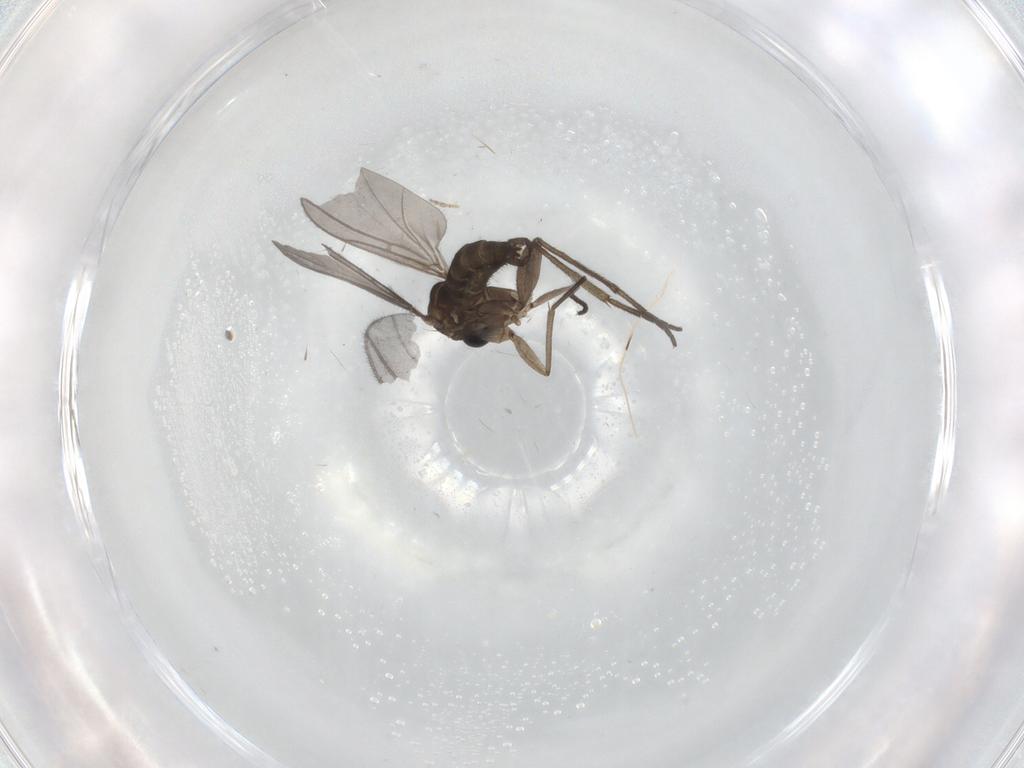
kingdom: Animalia
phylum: Arthropoda
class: Insecta
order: Diptera
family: Sciaridae
